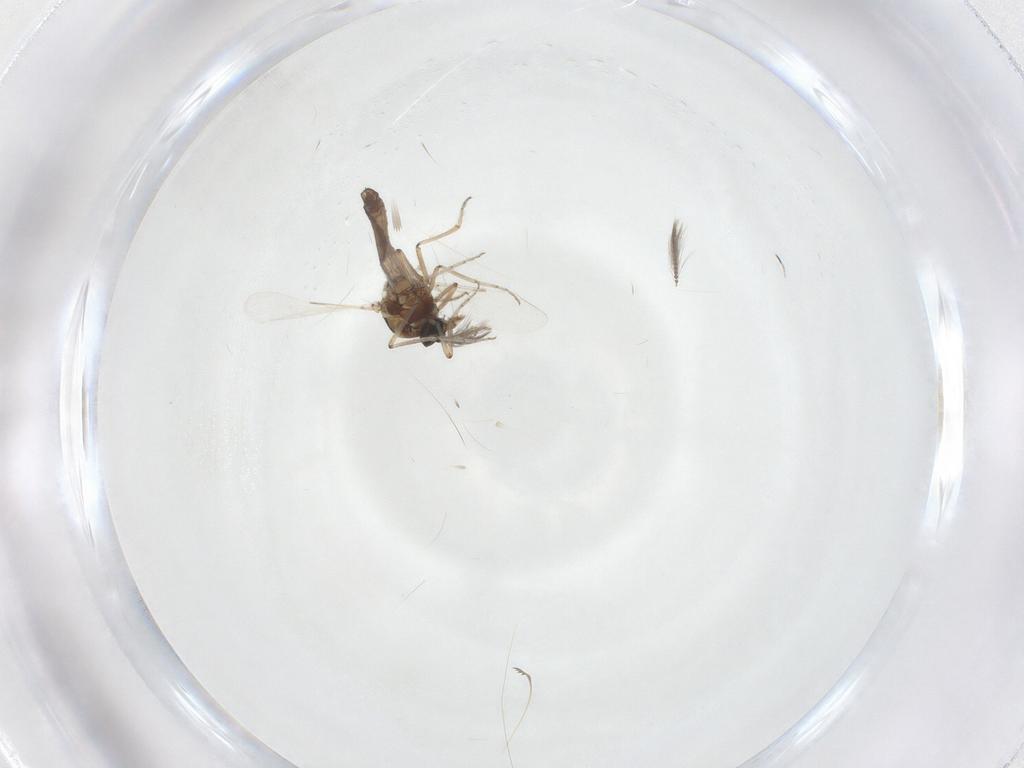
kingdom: Animalia
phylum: Arthropoda
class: Insecta
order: Diptera
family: Ceratopogonidae
